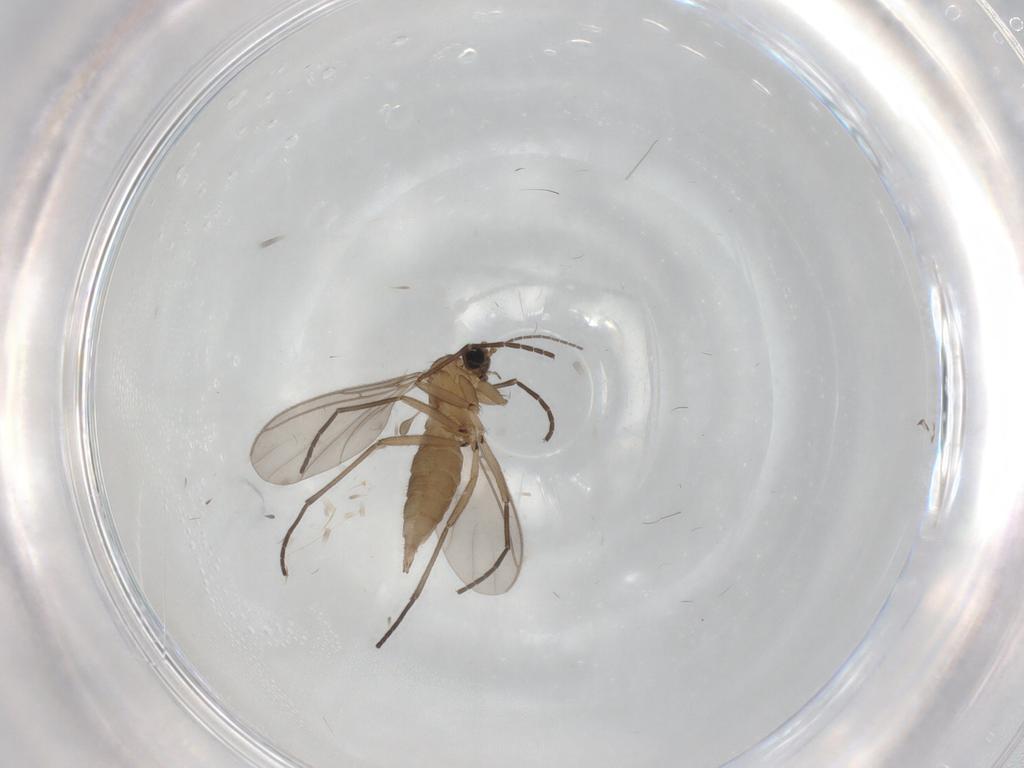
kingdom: Animalia
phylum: Arthropoda
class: Insecta
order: Diptera
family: Sciaridae
